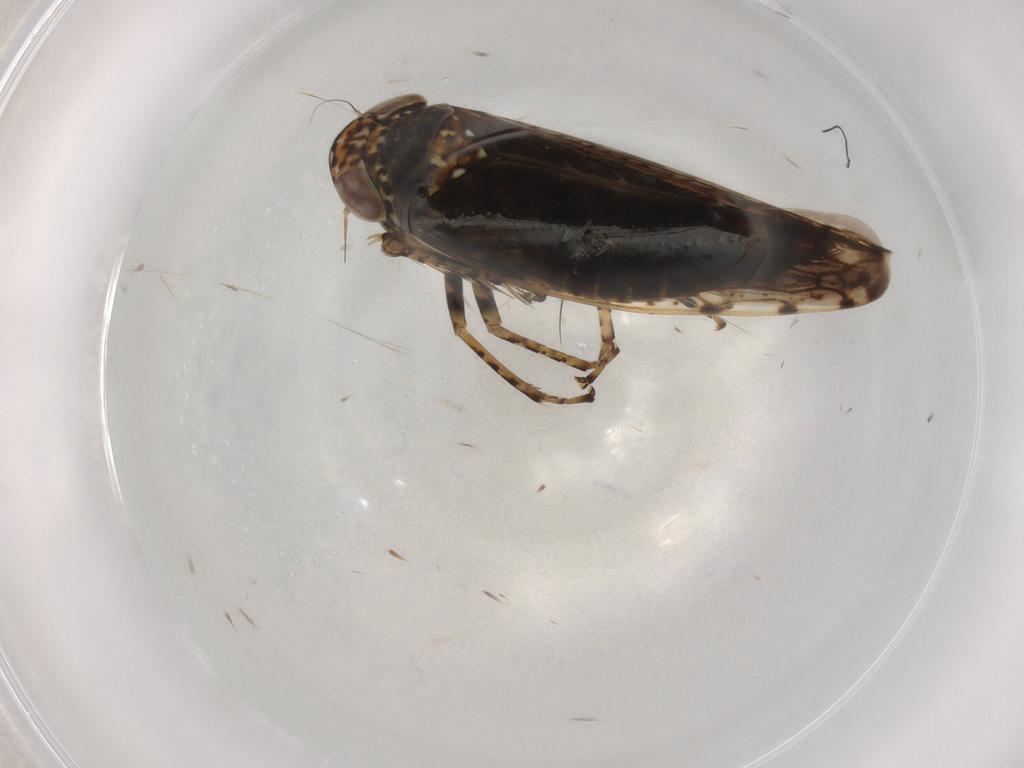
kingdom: Animalia
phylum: Arthropoda
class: Insecta
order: Hemiptera
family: Cicadellidae
